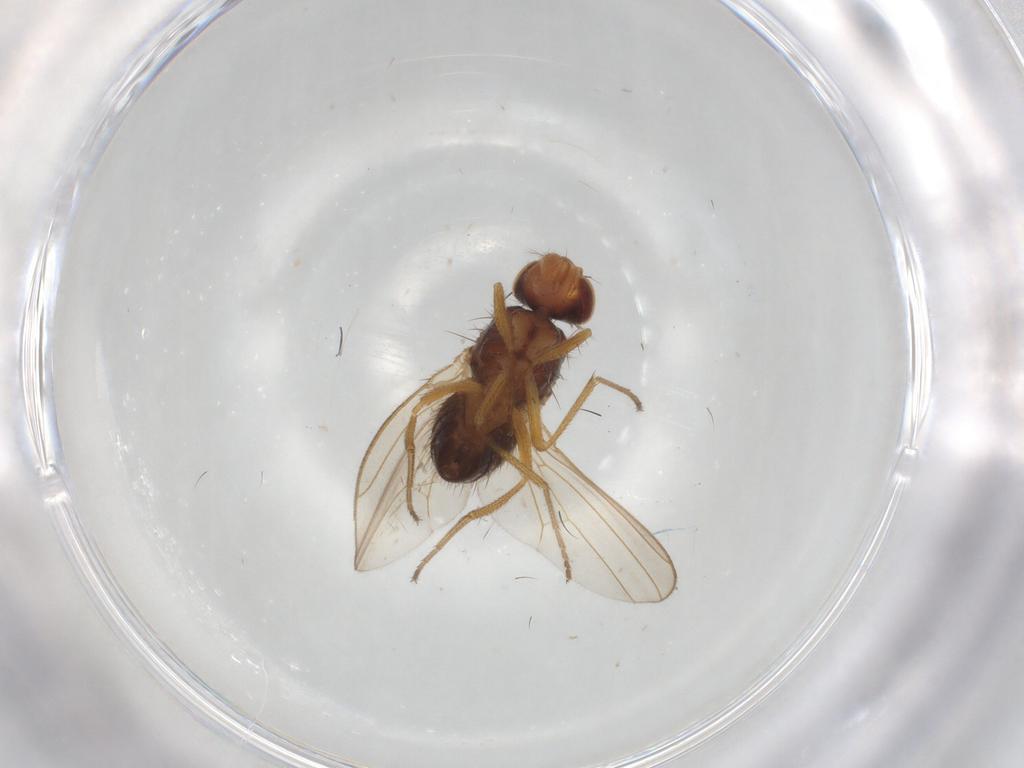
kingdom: Animalia
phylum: Arthropoda
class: Insecta
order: Diptera
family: Drosophilidae
